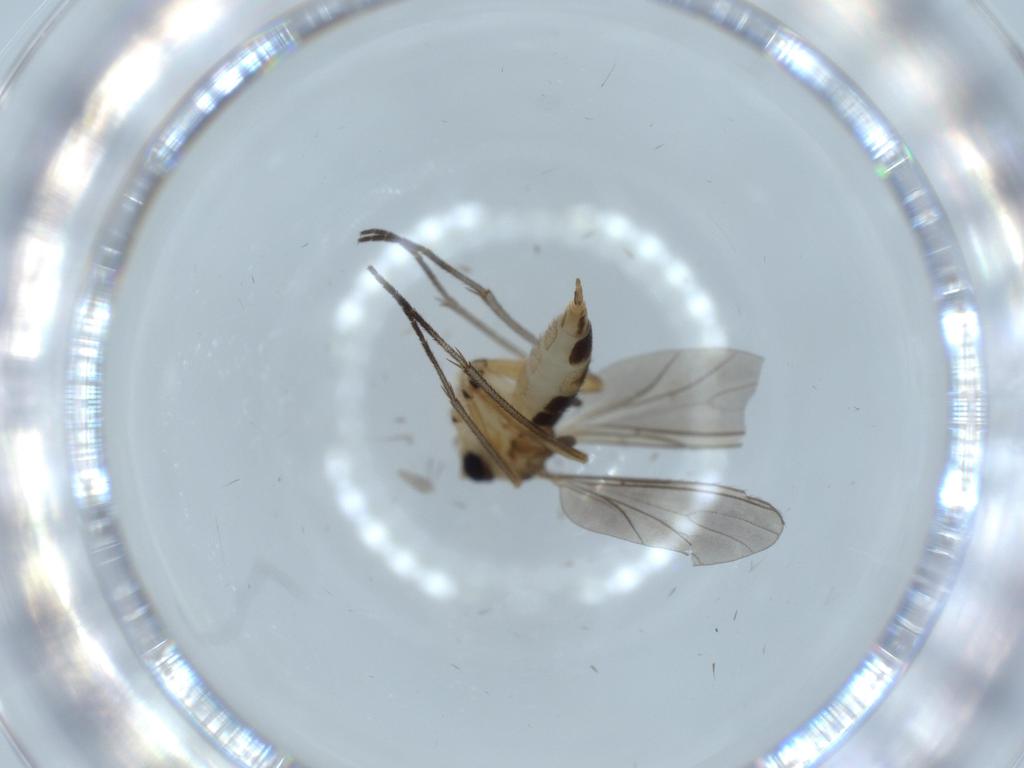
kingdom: Animalia
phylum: Arthropoda
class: Insecta
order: Diptera
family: Sciaridae
